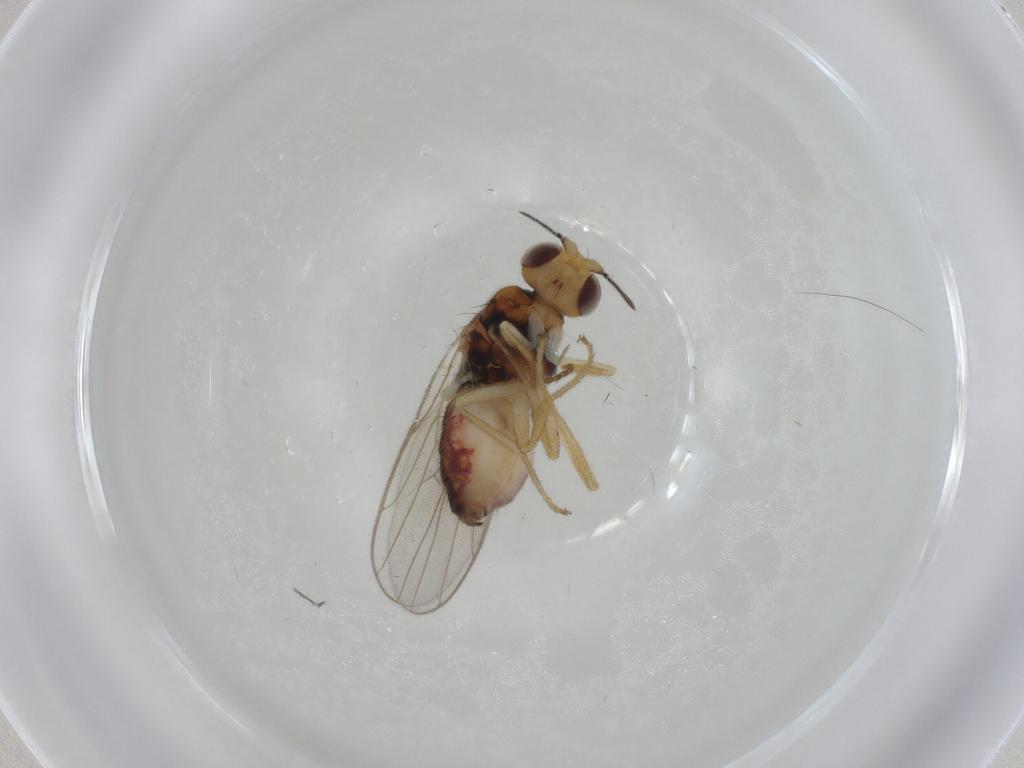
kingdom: Animalia
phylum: Arthropoda
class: Insecta
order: Diptera
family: Chloropidae
